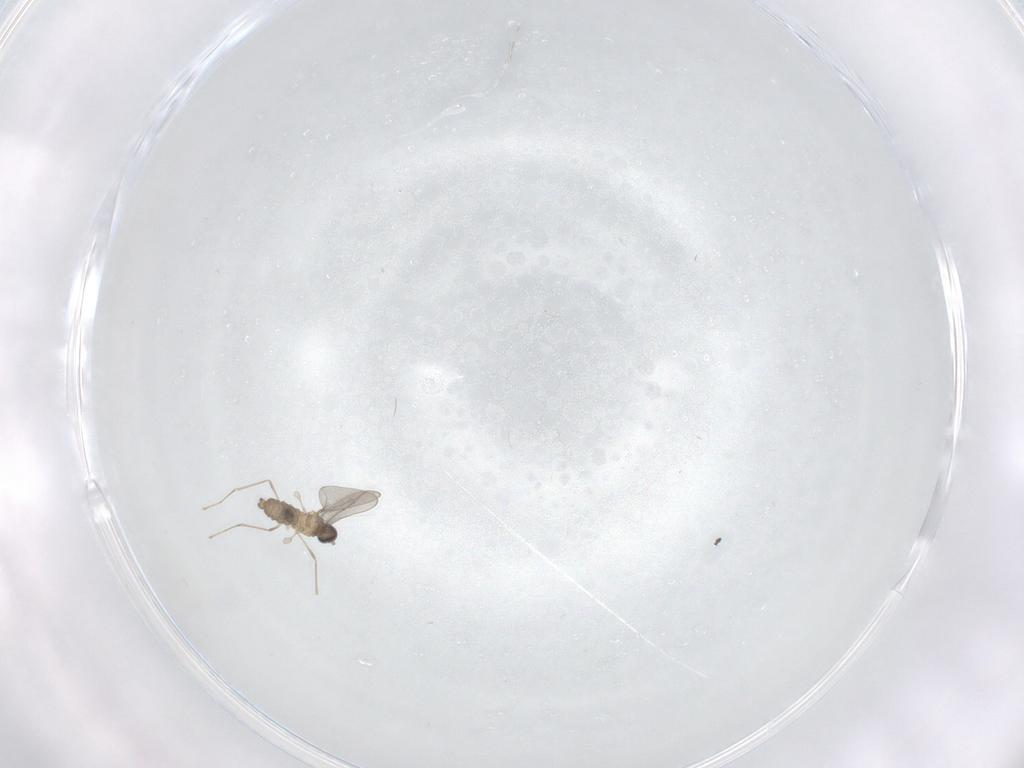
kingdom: Animalia
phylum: Arthropoda
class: Insecta
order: Diptera
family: Cecidomyiidae
